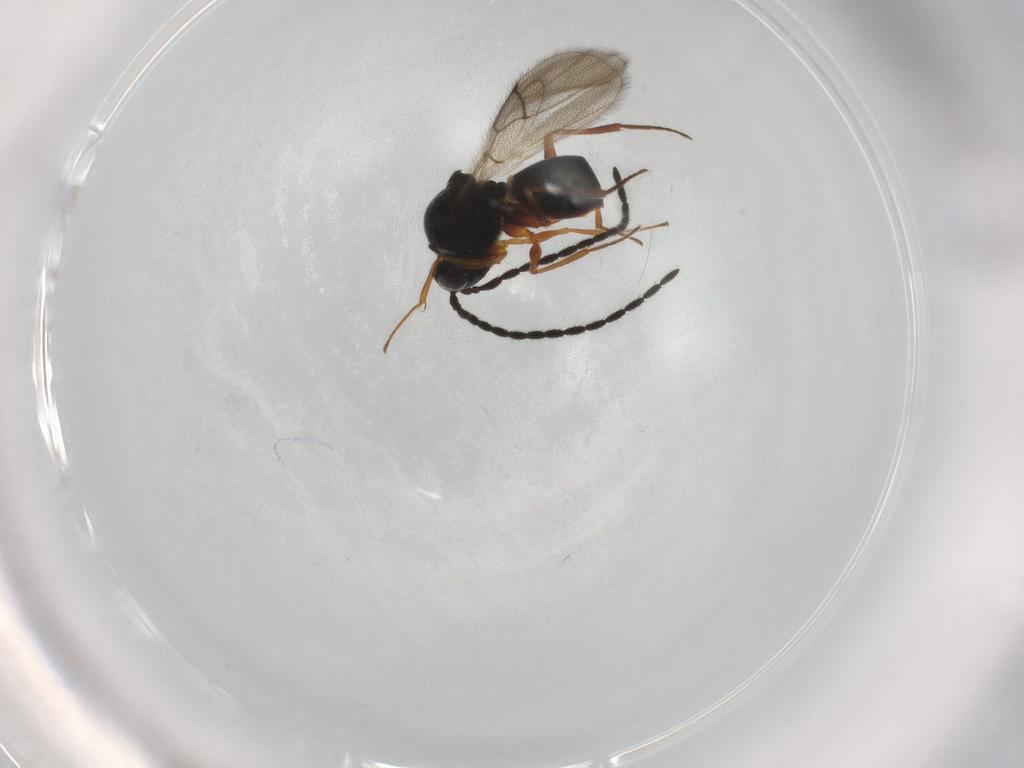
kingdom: Animalia
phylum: Arthropoda
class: Insecta
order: Hymenoptera
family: Figitidae
